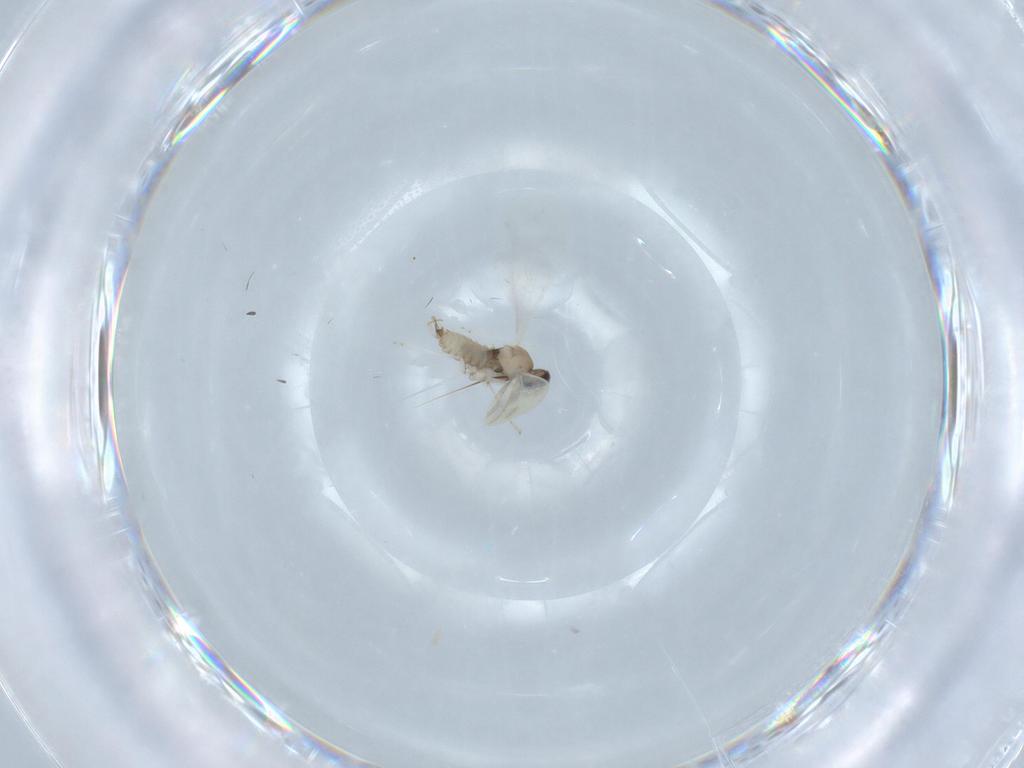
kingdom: Animalia
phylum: Arthropoda
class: Insecta
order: Diptera
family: Cecidomyiidae
